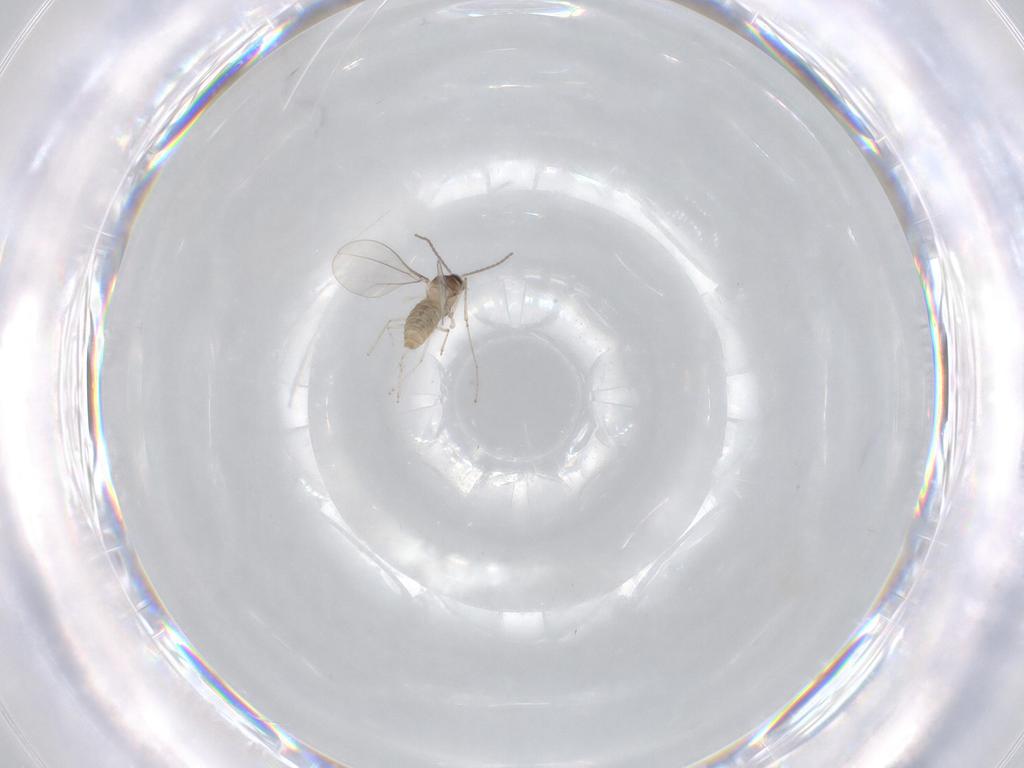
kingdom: Animalia
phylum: Arthropoda
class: Insecta
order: Diptera
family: Cecidomyiidae
